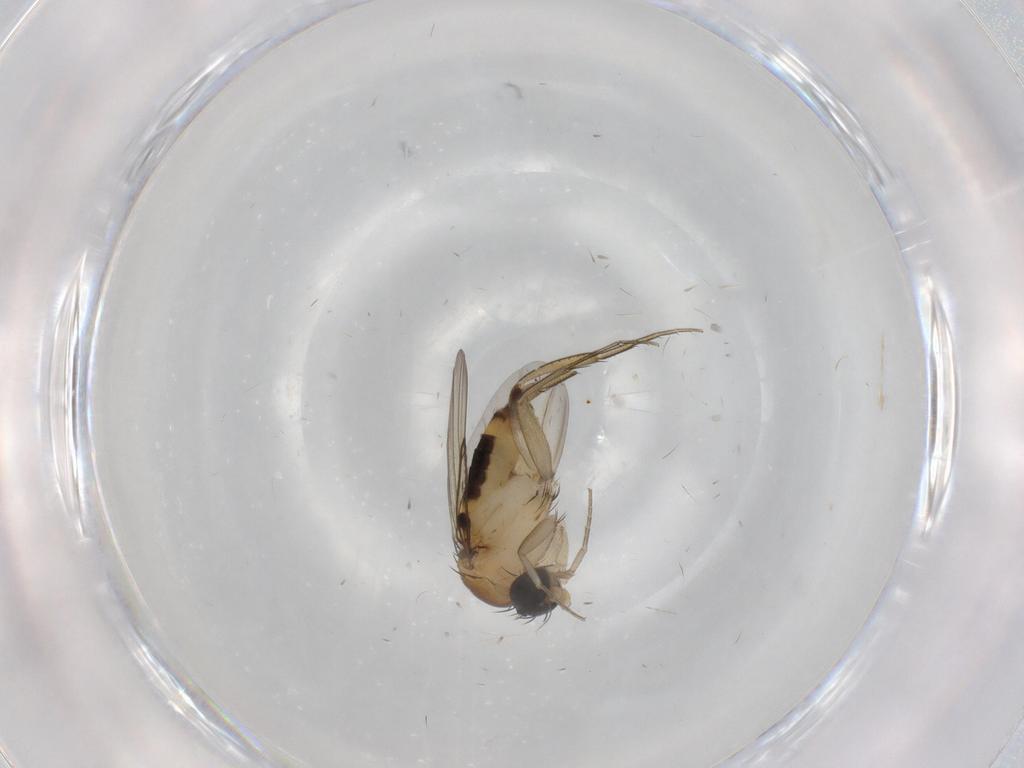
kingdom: Animalia
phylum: Arthropoda
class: Insecta
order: Diptera
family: Phoridae
